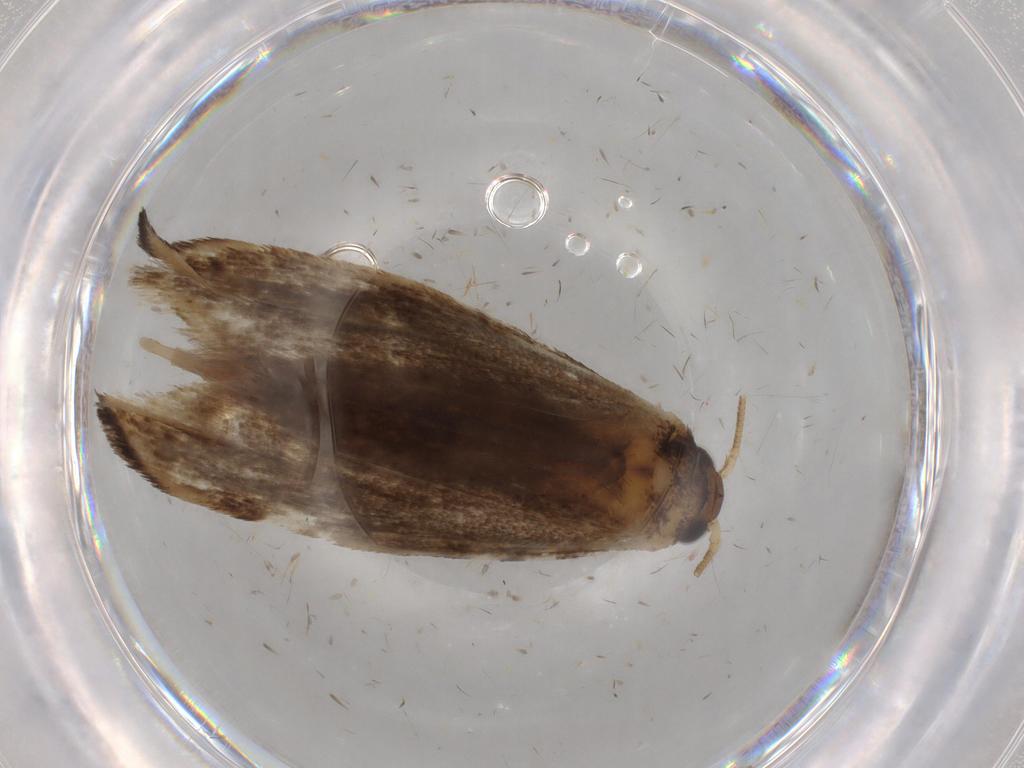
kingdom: Animalia
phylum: Arthropoda
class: Insecta
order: Lepidoptera
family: Tineidae
